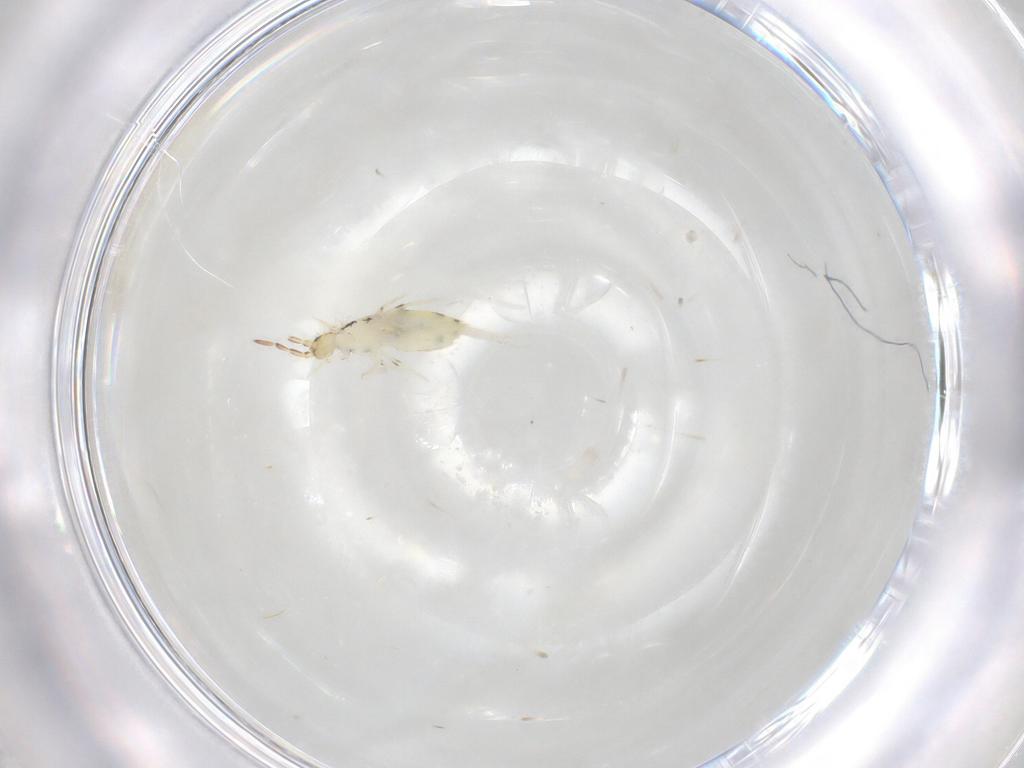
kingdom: Animalia
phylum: Arthropoda
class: Collembola
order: Entomobryomorpha
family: Entomobryidae
